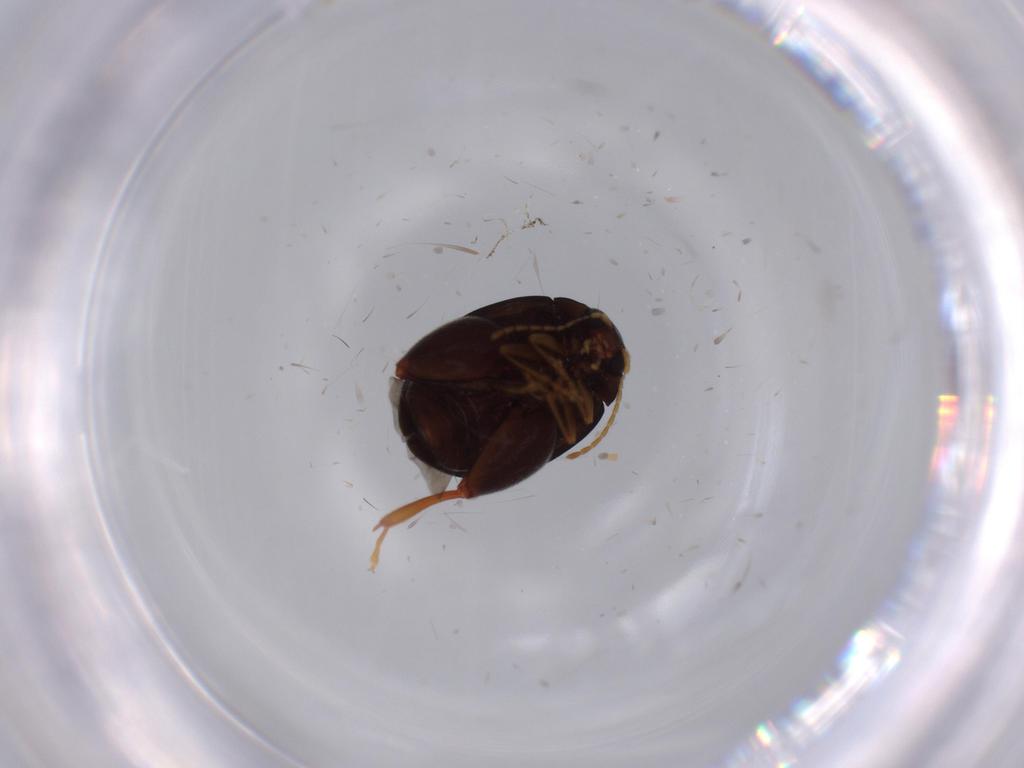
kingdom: Animalia
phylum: Arthropoda
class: Insecta
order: Coleoptera
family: Chrysomelidae
